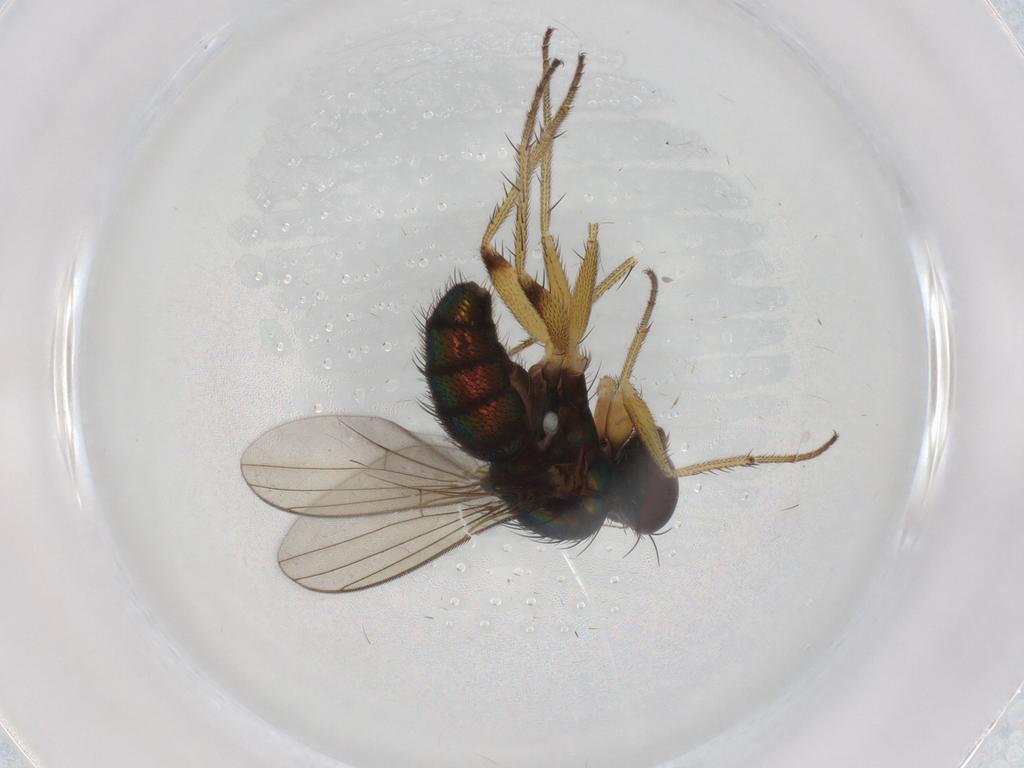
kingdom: Animalia
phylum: Arthropoda
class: Insecta
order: Diptera
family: Dolichopodidae
